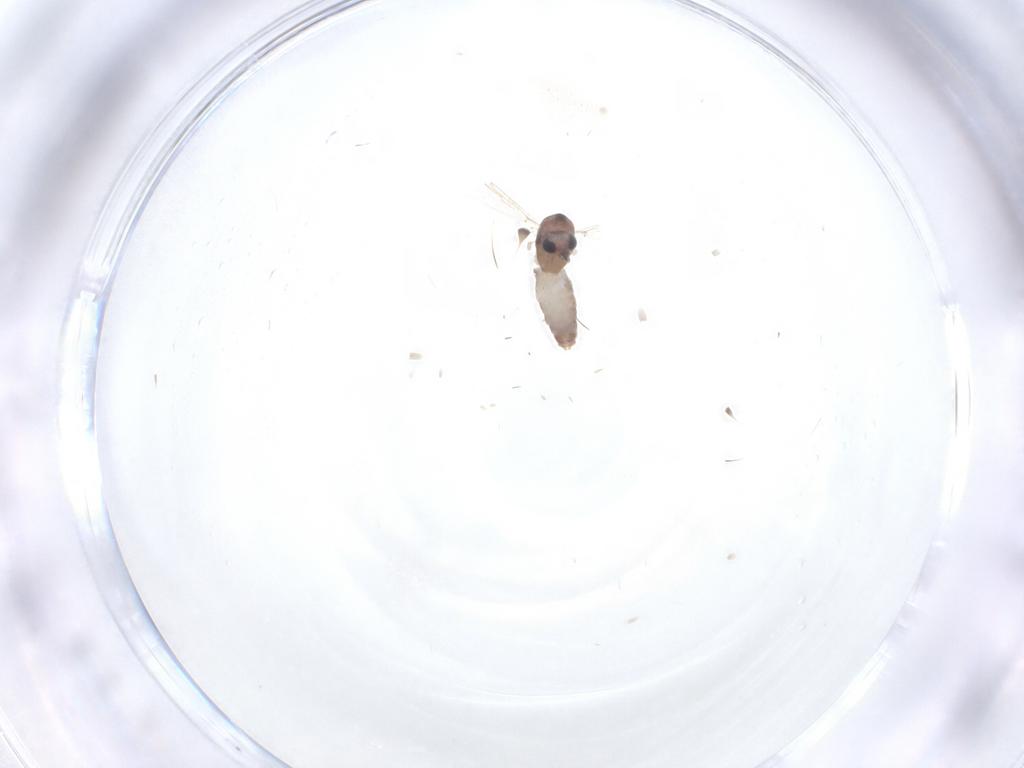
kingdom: Animalia
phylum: Arthropoda
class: Insecta
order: Diptera
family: Chironomidae
